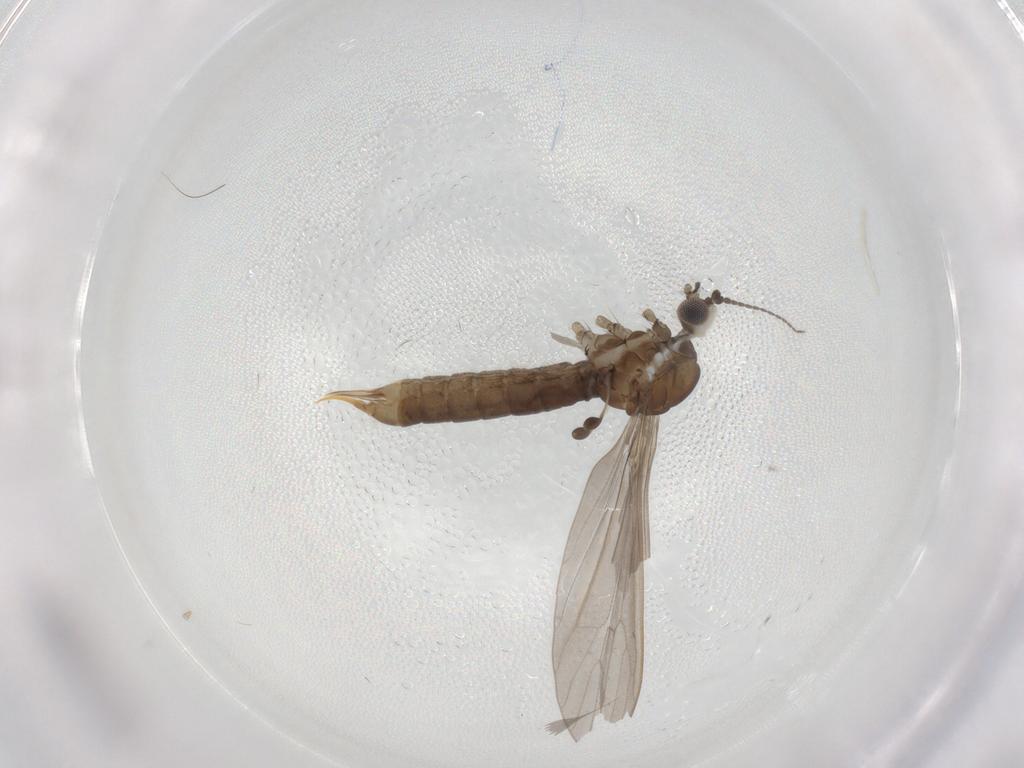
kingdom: Animalia
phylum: Arthropoda
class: Insecta
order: Diptera
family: Limoniidae
